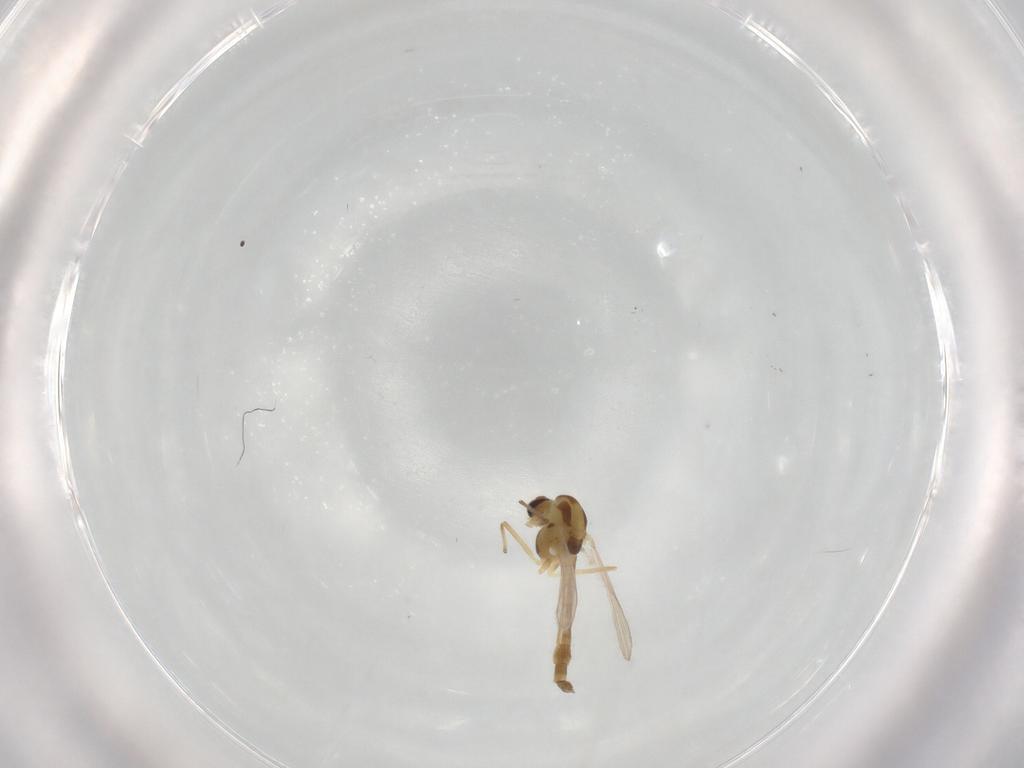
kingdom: Animalia
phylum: Arthropoda
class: Insecta
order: Diptera
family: Chironomidae
